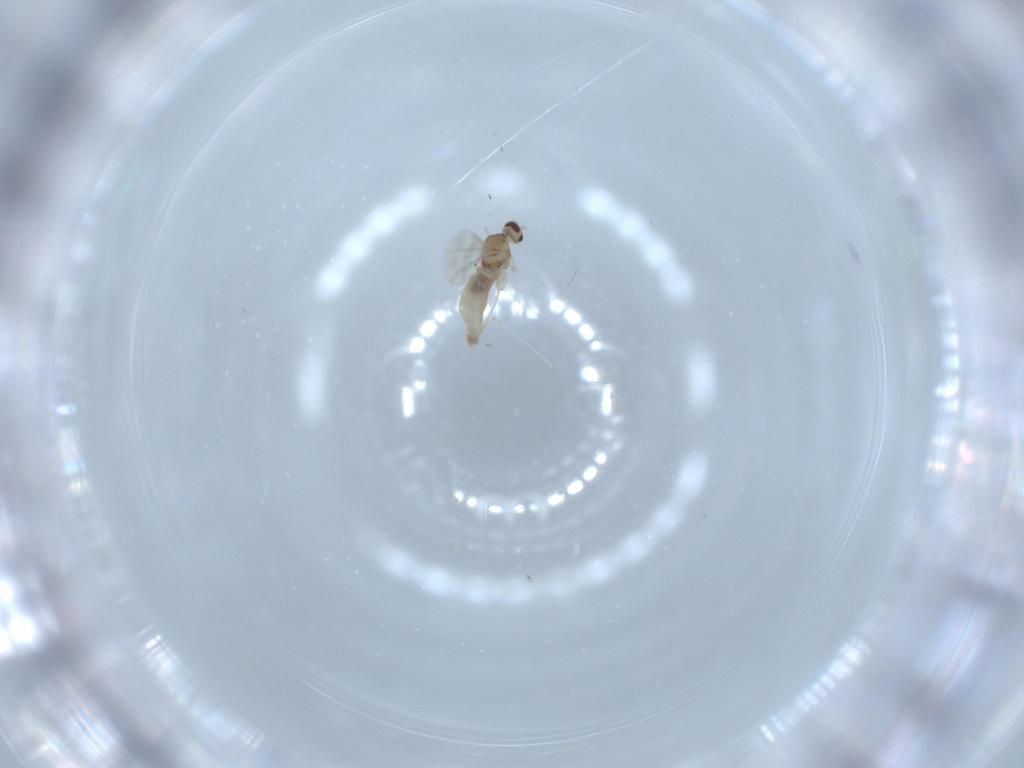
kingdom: Animalia
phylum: Arthropoda
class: Insecta
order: Diptera
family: Cecidomyiidae
